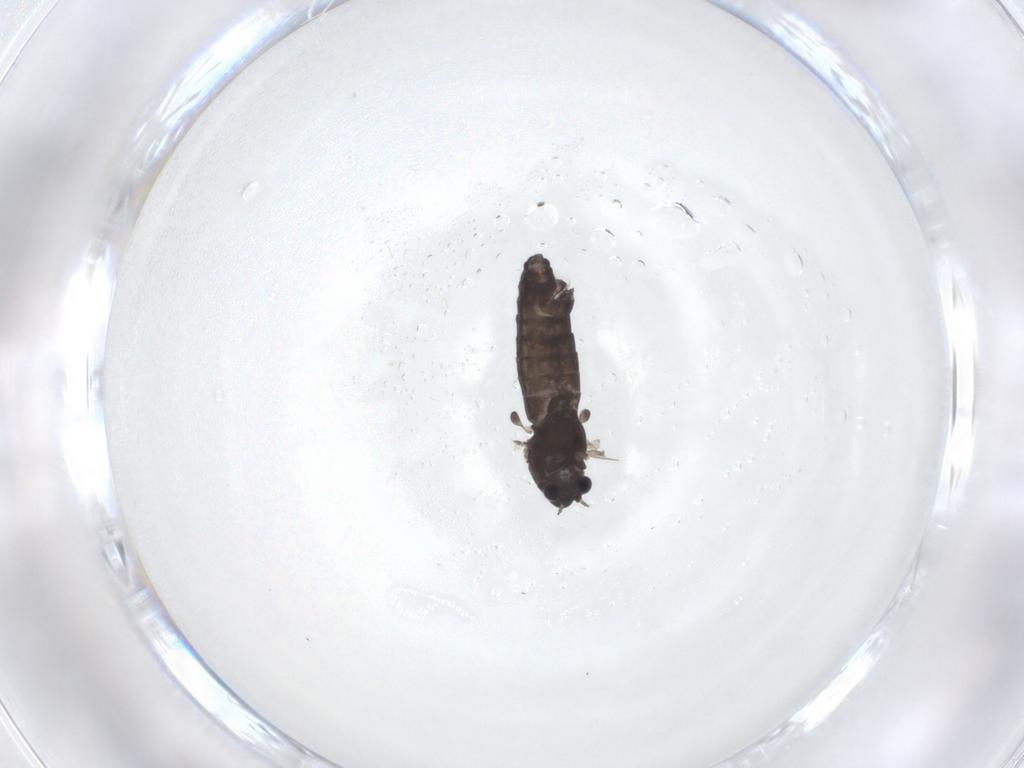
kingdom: Animalia
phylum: Arthropoda
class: Insecta
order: Diptera
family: Chironomidae
